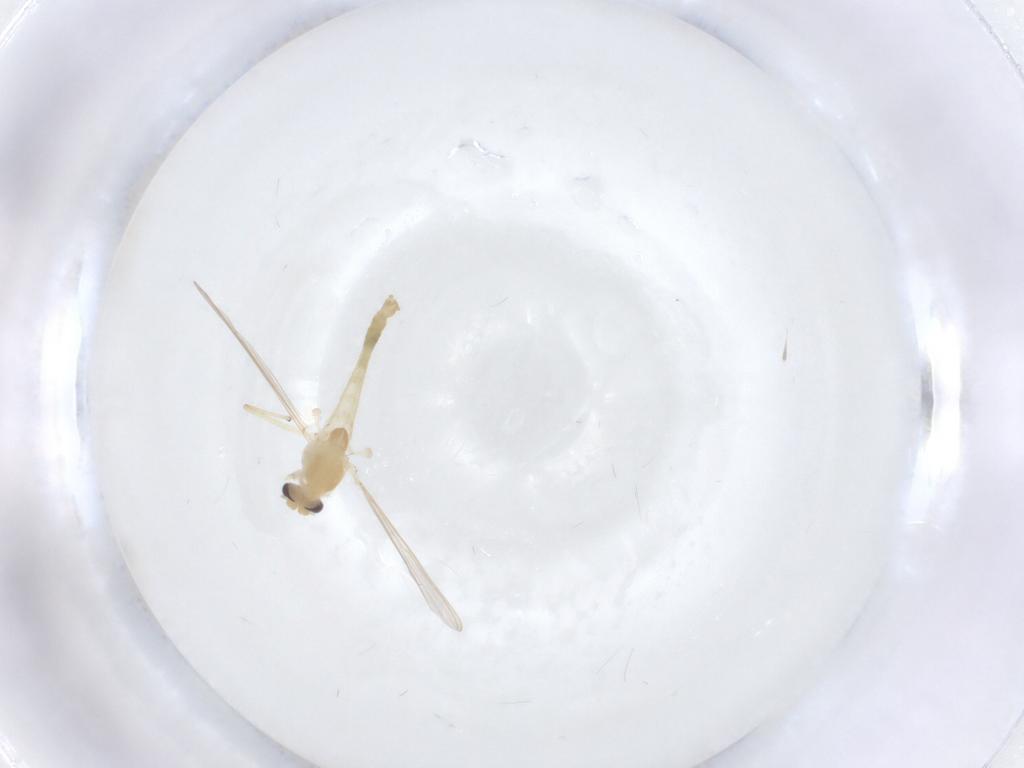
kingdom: Animalia
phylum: Arthropoda
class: Insecta
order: Diptera
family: Chironomidae
